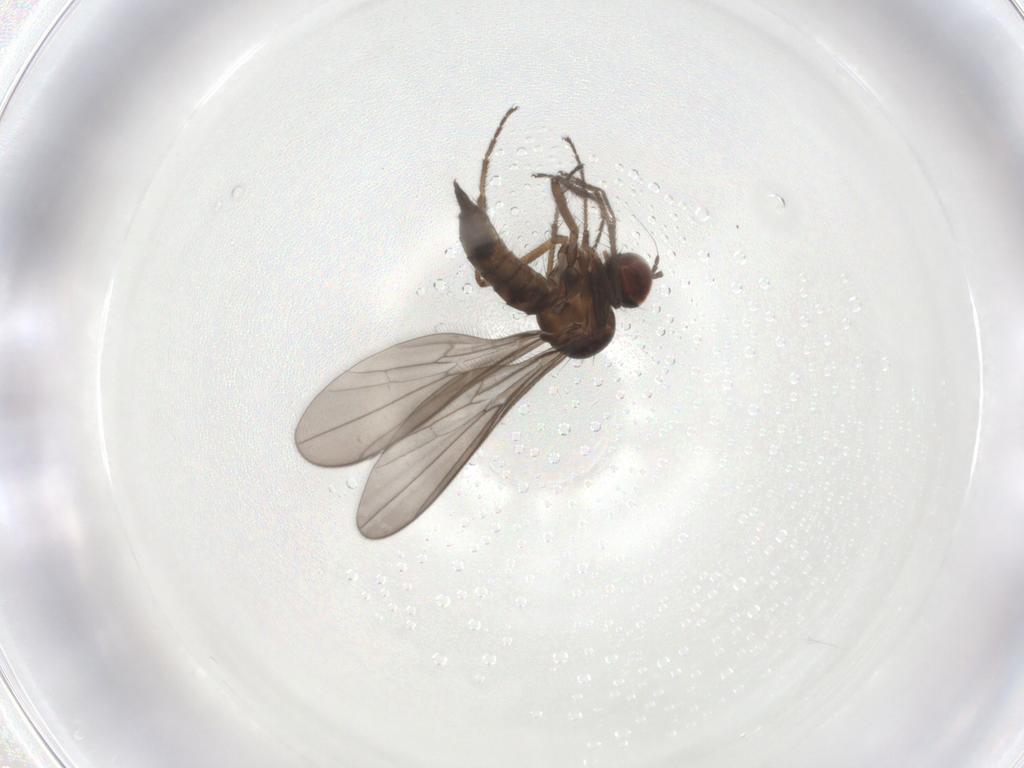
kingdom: Animalia
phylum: Arthropoda
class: Insecta
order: Diptera
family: Hybotidae
